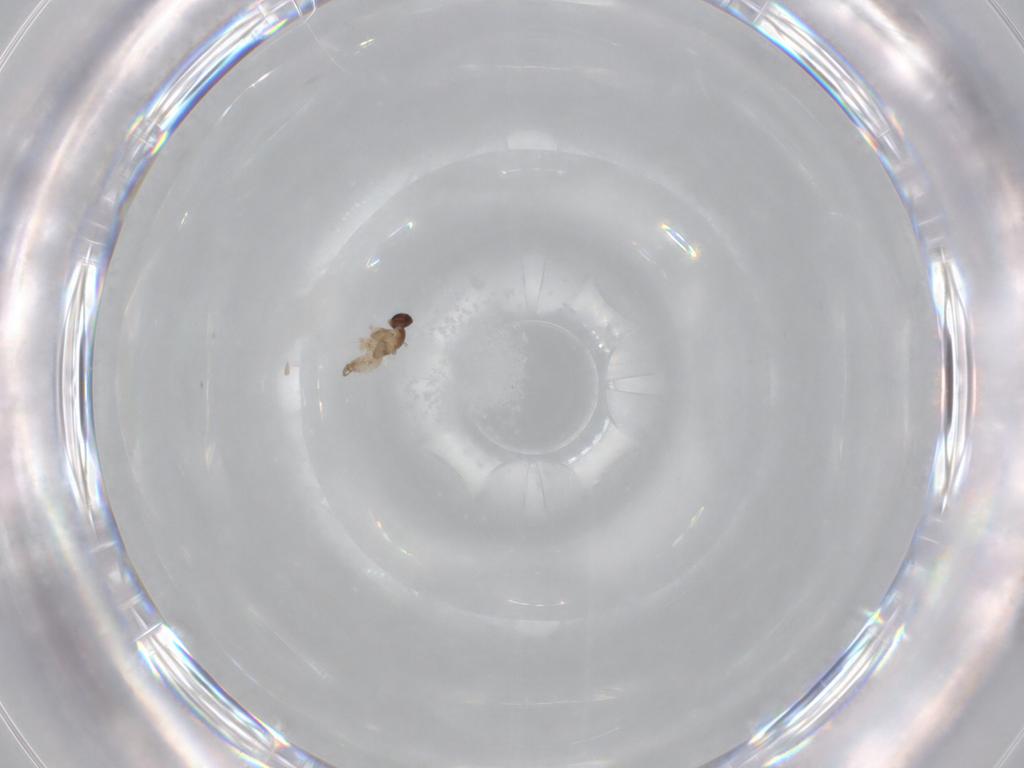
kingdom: Animalia
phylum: Arthropoda
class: Insecta
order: Diptera
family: Cecidomyiidae
